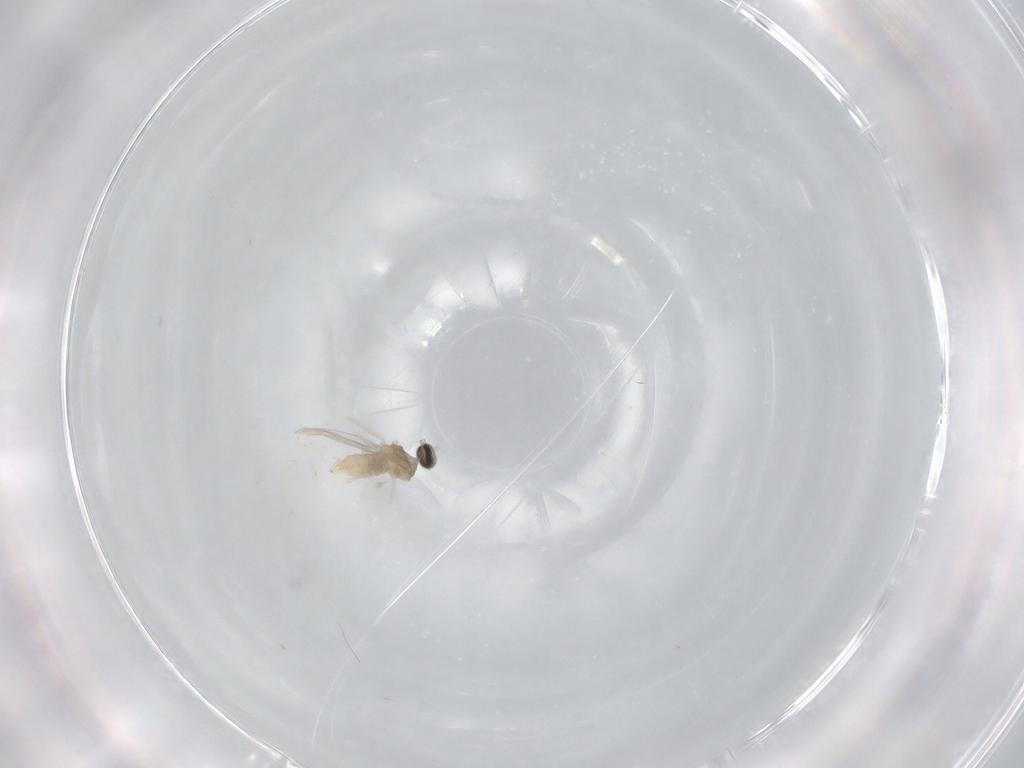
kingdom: Animalia
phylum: Arthropoda
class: Insecta
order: Diptera
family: Cecidomyiidae
